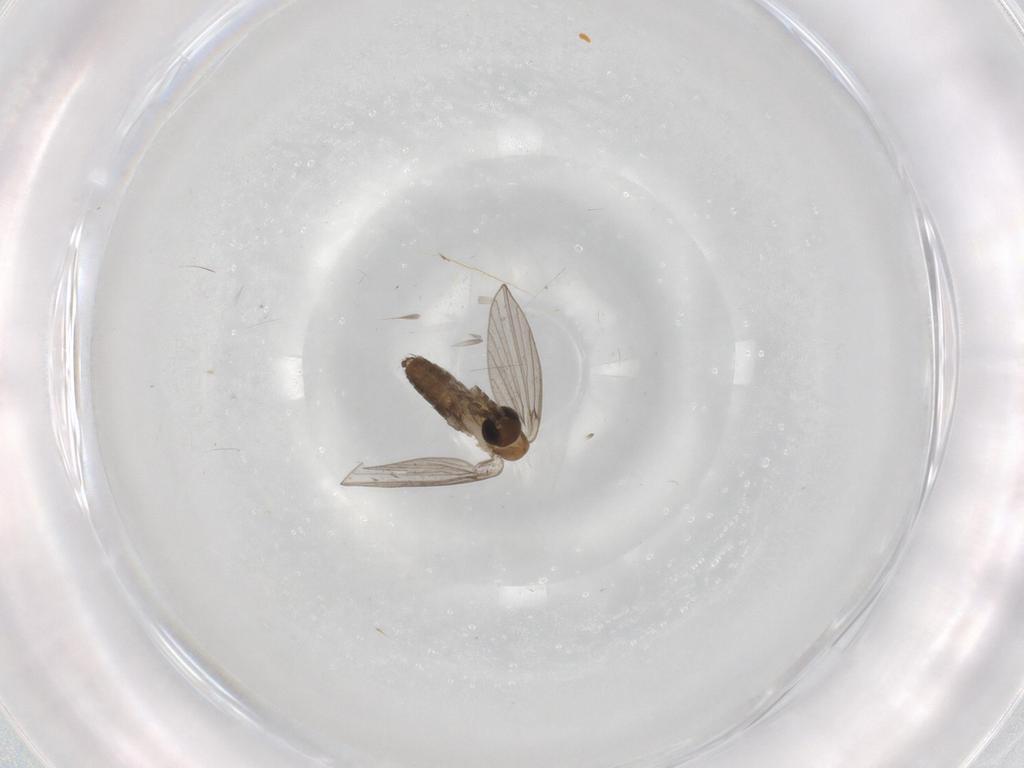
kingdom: Animalia
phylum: Arthropoda
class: Insecta
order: Diptera
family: Psychodidae
